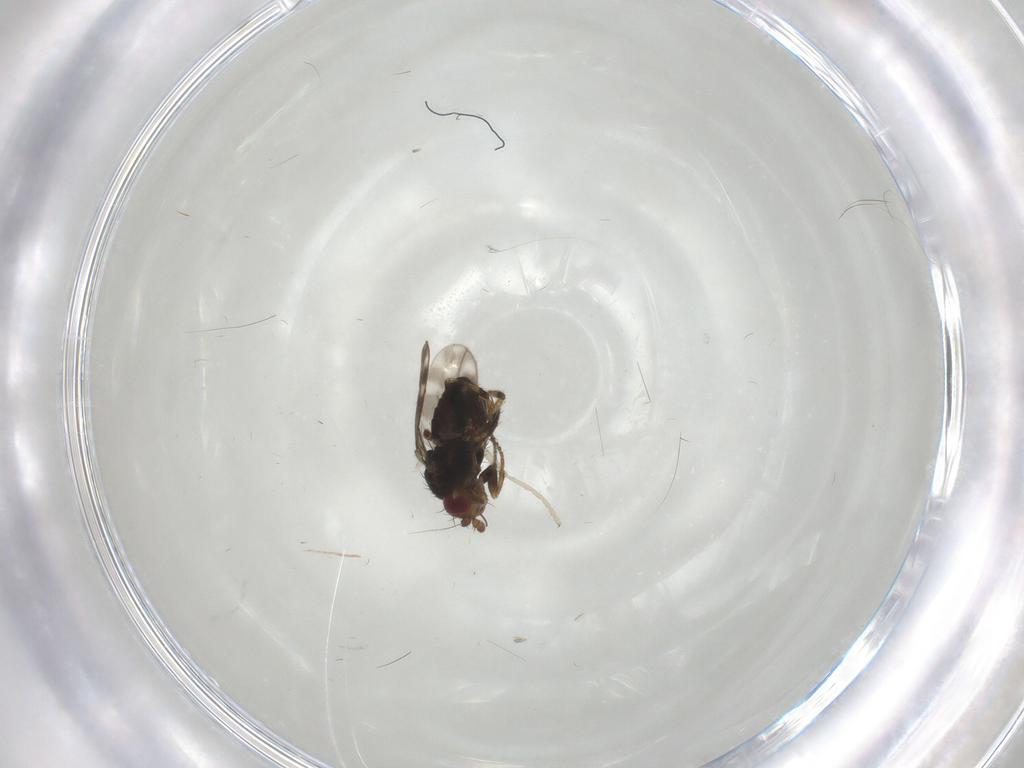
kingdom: Animalia
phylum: Arthropoda
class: Insecta
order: Diptera
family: Sphaeroceridae
